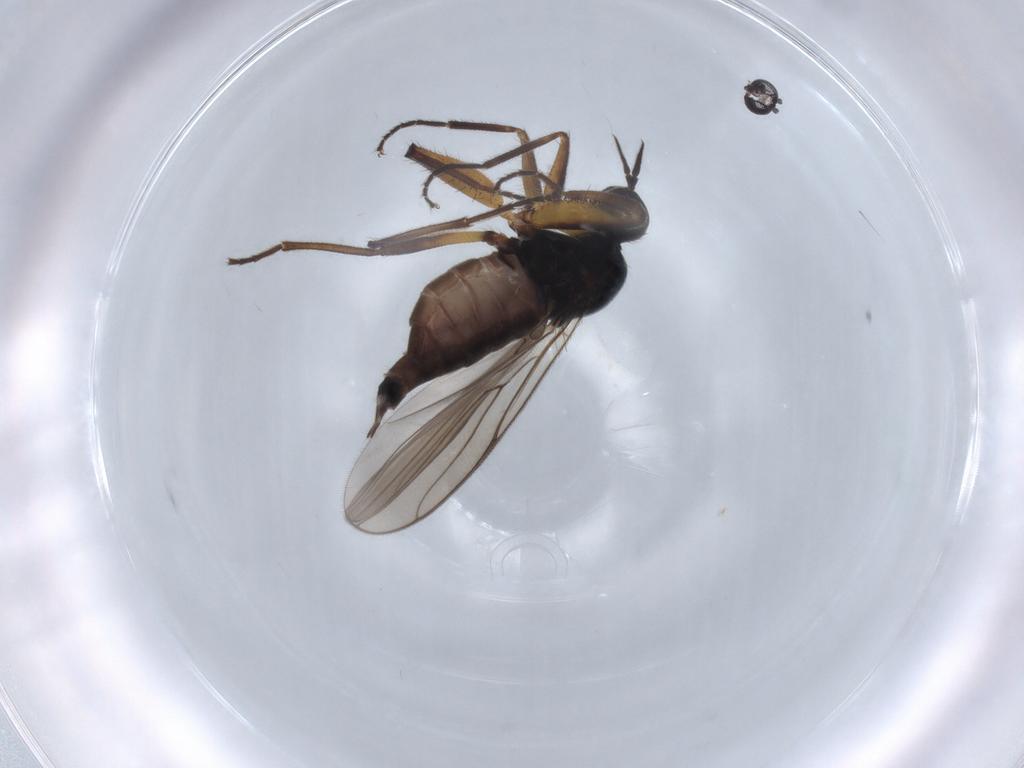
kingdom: Animalia
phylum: Arthropoda
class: Insecta
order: Diptera
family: Hybotidae
